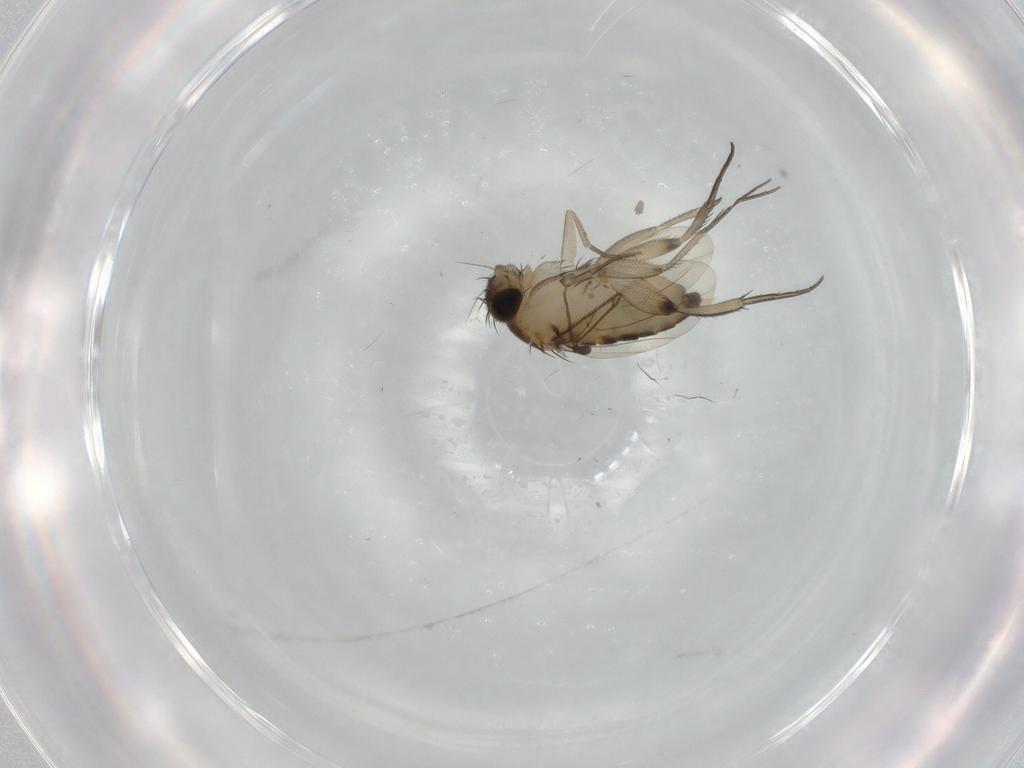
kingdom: Animalia
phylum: Arthropoda
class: Insecta
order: Diptera
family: Phoridae
